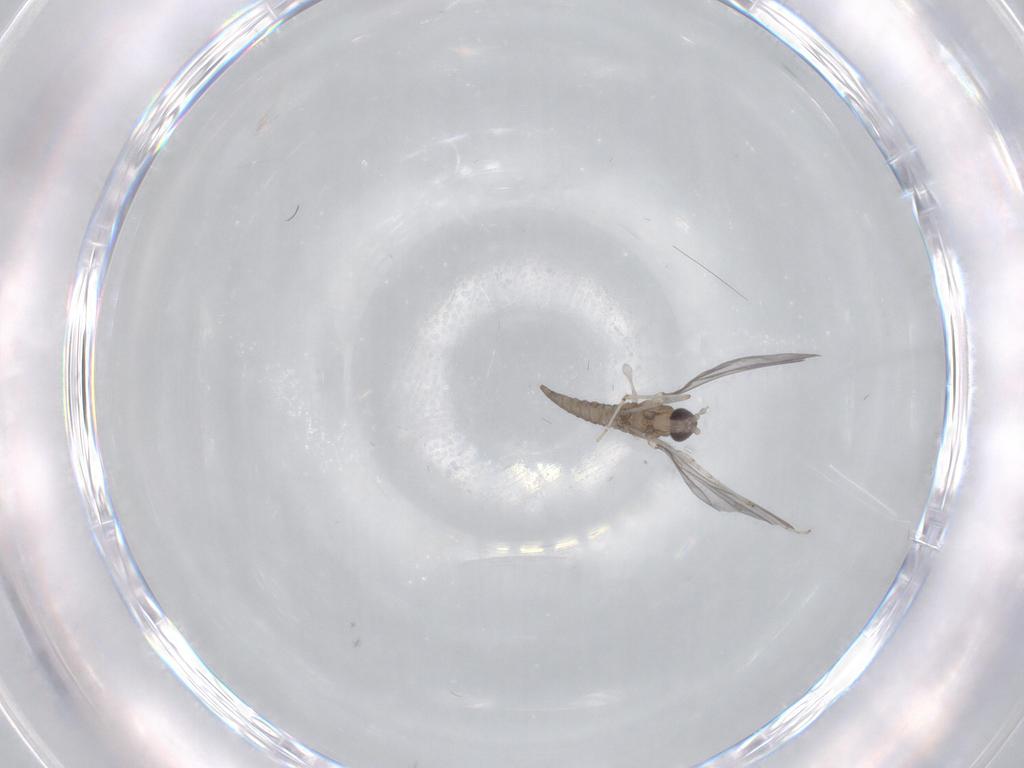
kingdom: Animalia
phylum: Arthropoda
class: Insecta
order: Diptera
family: Cecidomyiidae
